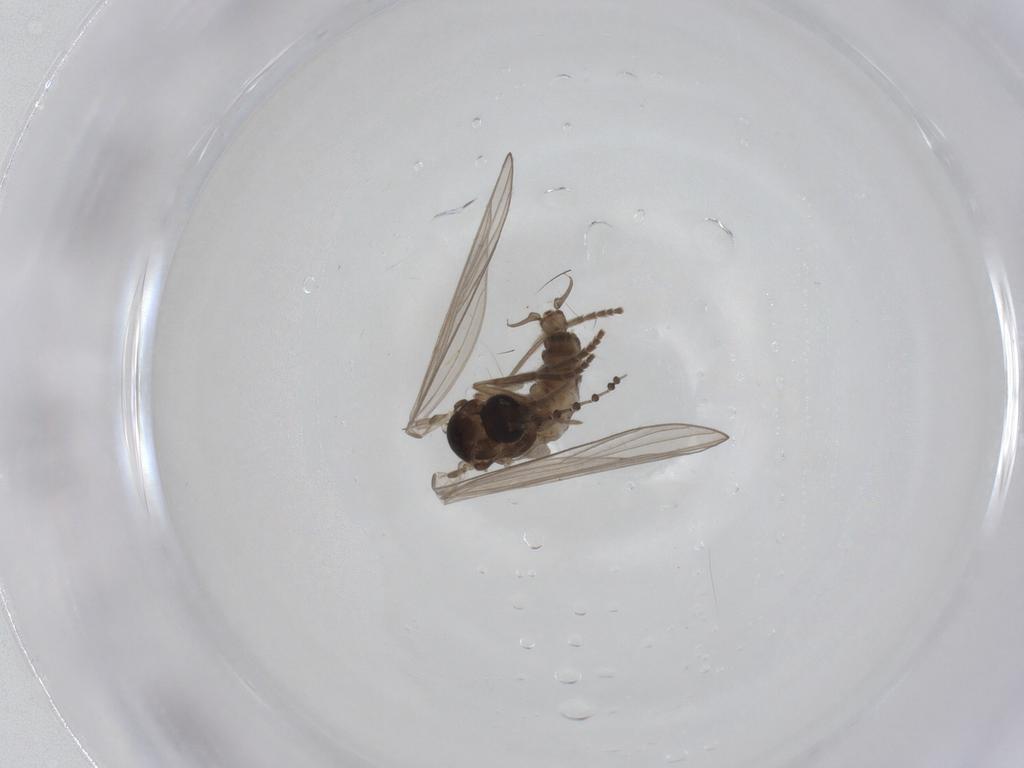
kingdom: Animalia
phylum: Arthropoda
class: Insecta
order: Diptera
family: Psychodidae
